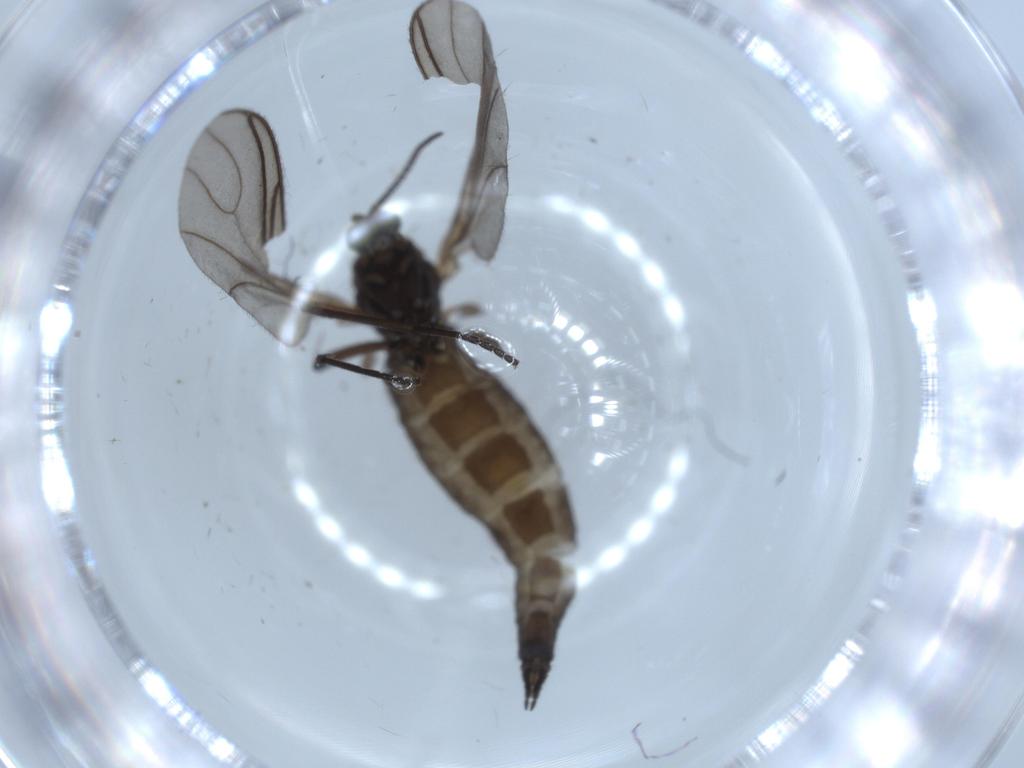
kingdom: Animalia
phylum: Arthropoda
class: Insecta
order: Diptera
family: Sciaridae
